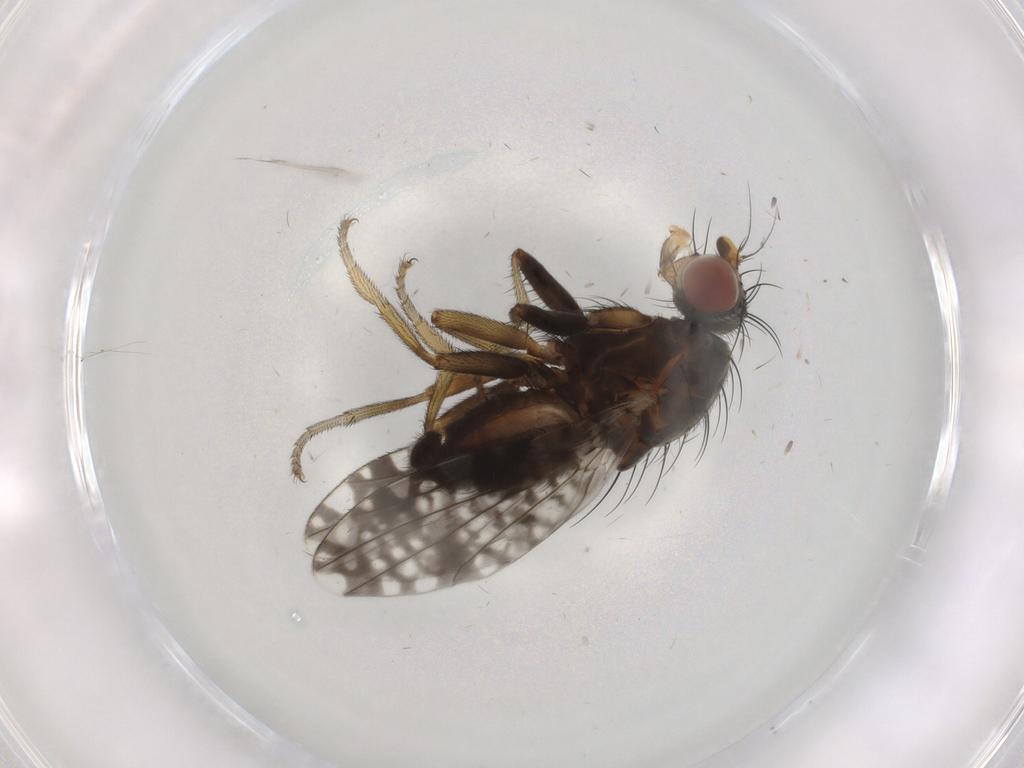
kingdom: Animalia
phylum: Arthropoda
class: Insecta
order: Diptera
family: Tephritidae
